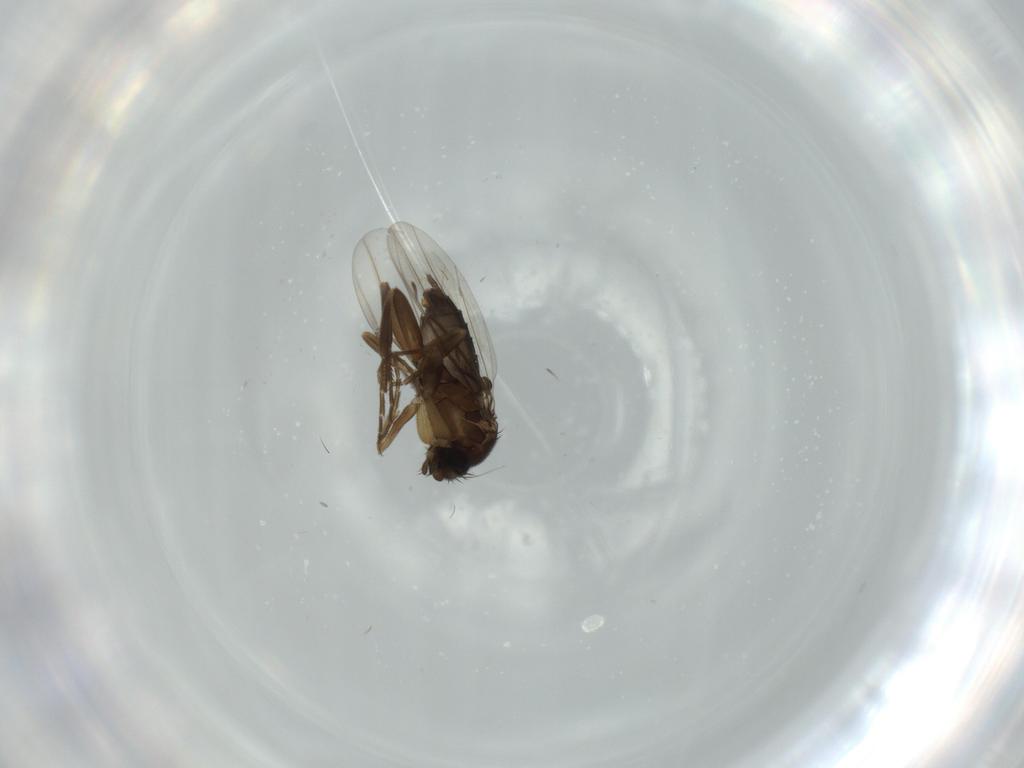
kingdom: Animalia
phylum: Arthropoda
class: Insecta
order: Diptera
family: Phoridae
